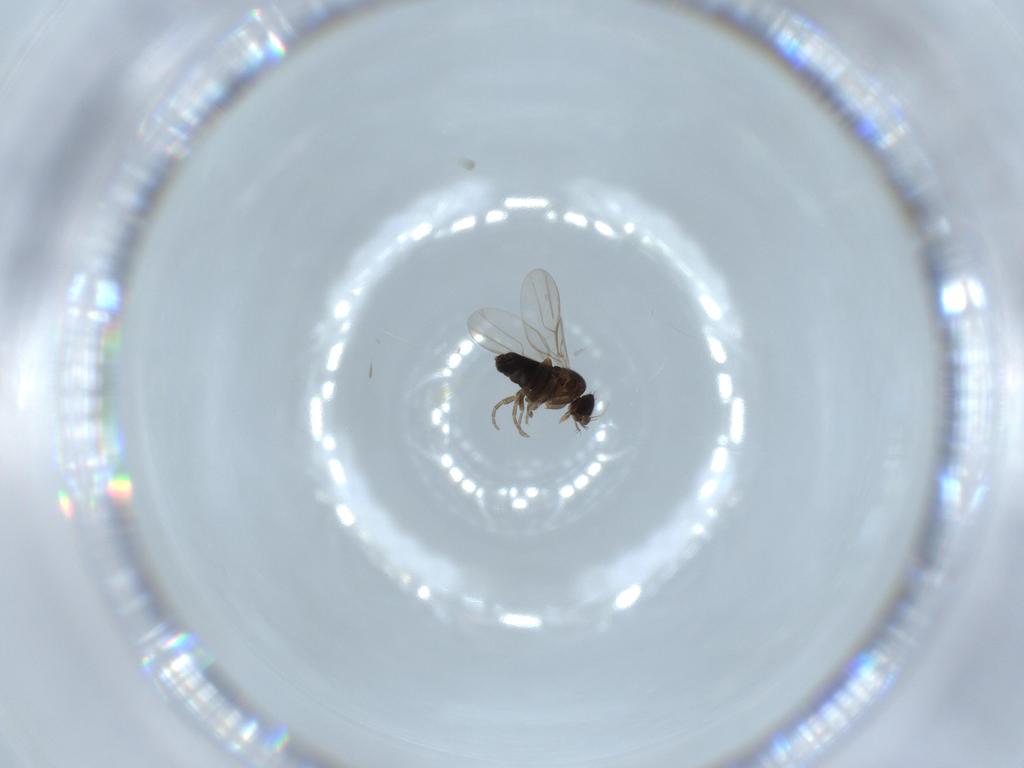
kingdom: Animalia
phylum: Arthropoda
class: Insecta
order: Diptera
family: Phoridae
